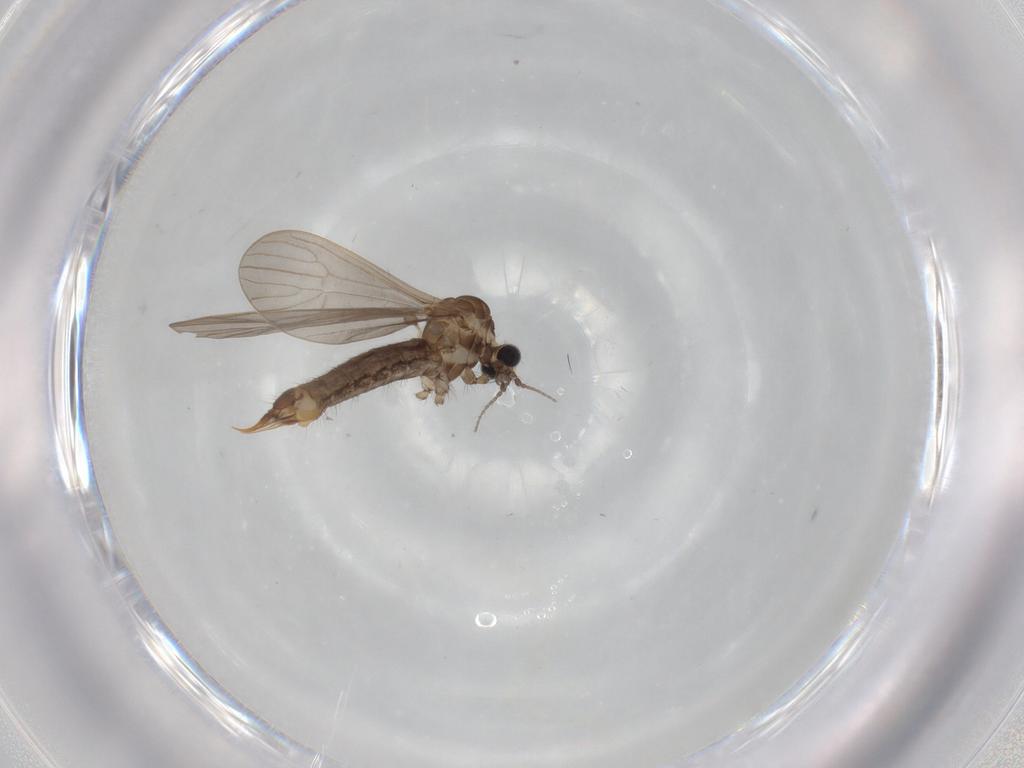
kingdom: Animalia
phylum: Arthropoda
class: Insecta
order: Diptera
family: Limoniidae
